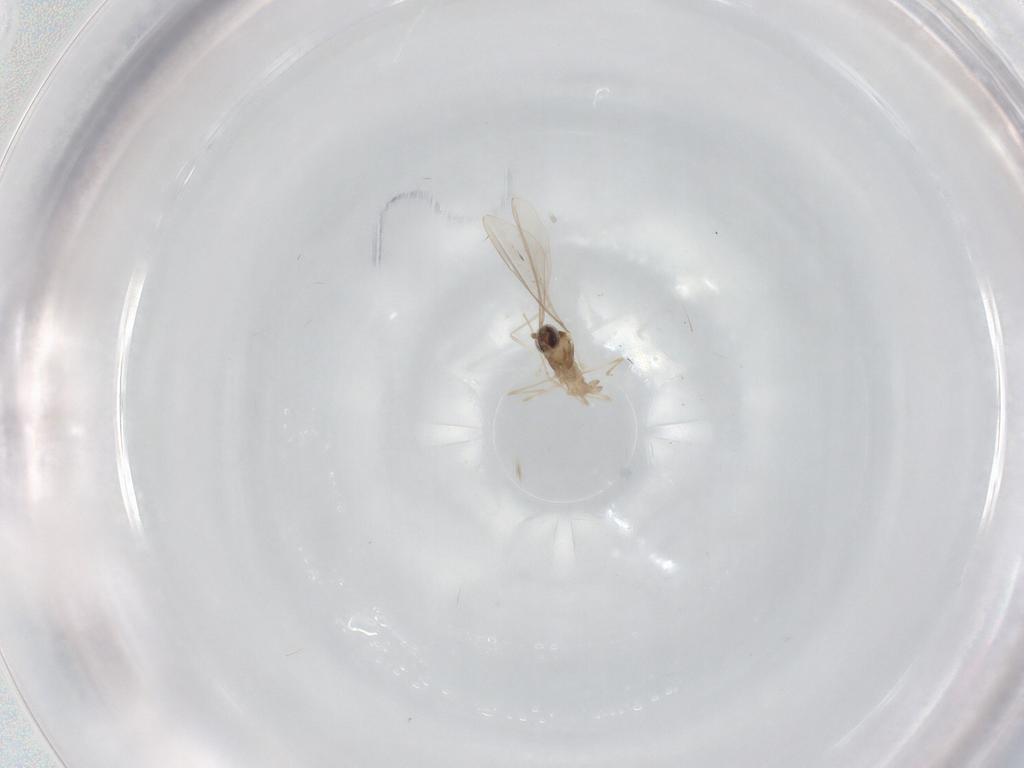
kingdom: Animalia
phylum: Arthropoda
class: Insecta
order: Diptera
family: Cecidomyiidae
